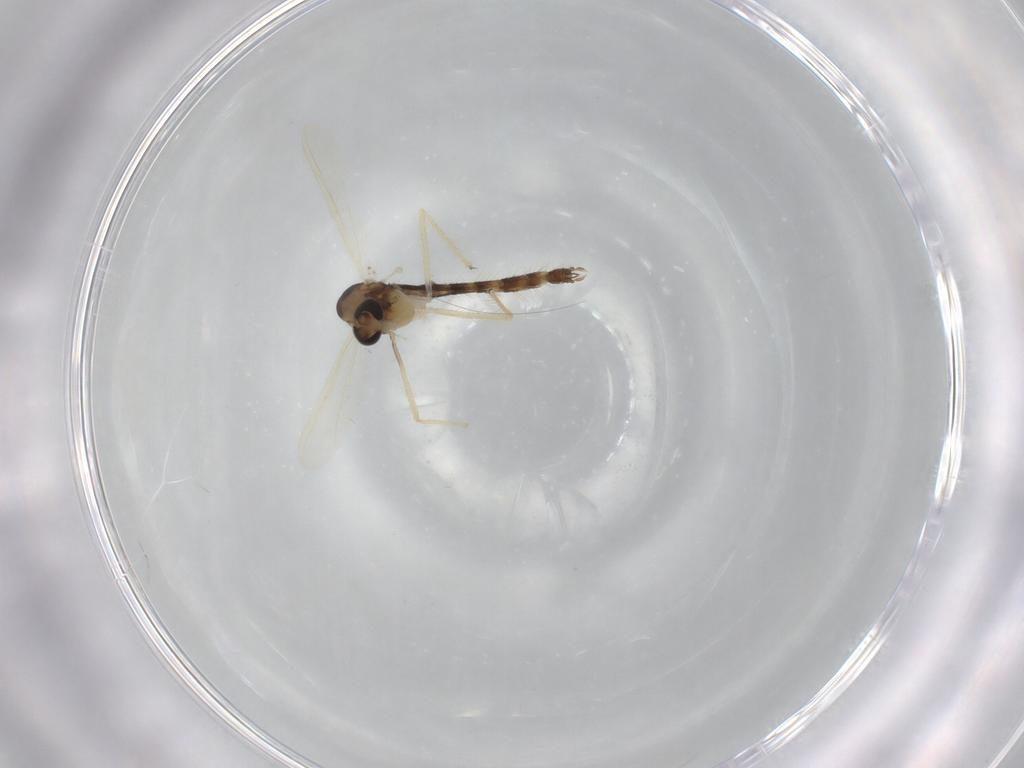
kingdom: Animalia
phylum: Arthropoda
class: Insecta
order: Diptera
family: Chironomidae
